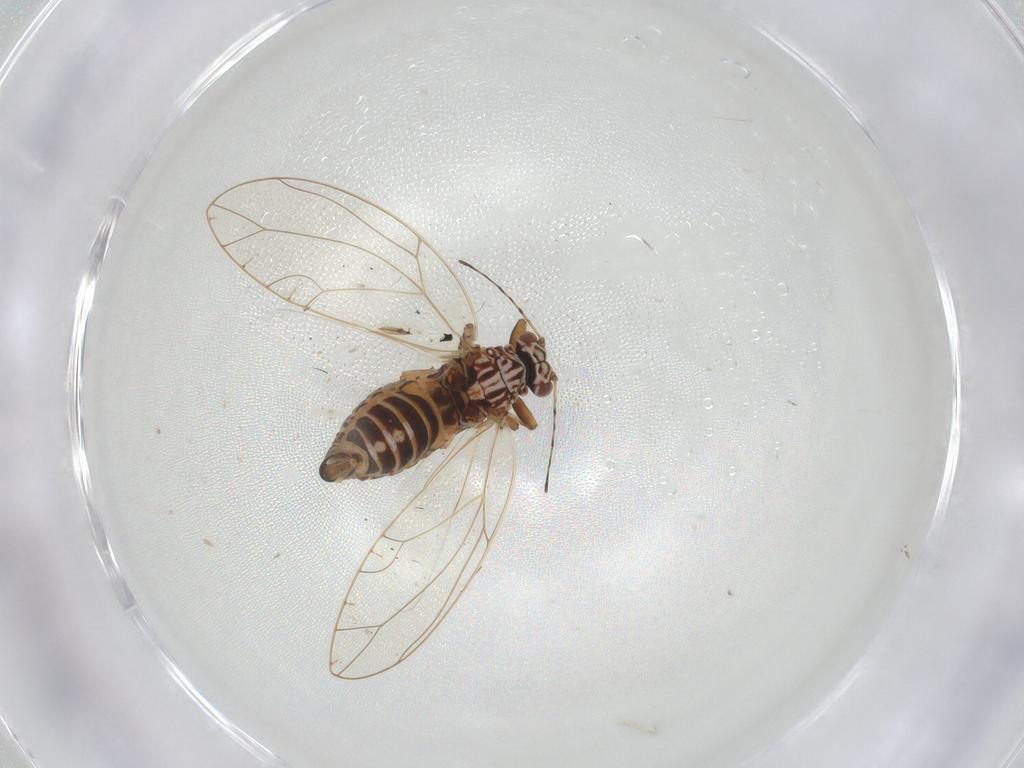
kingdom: Animalia
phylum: Arthropoda
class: Insecta
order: Hemiptera
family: Triozidae
